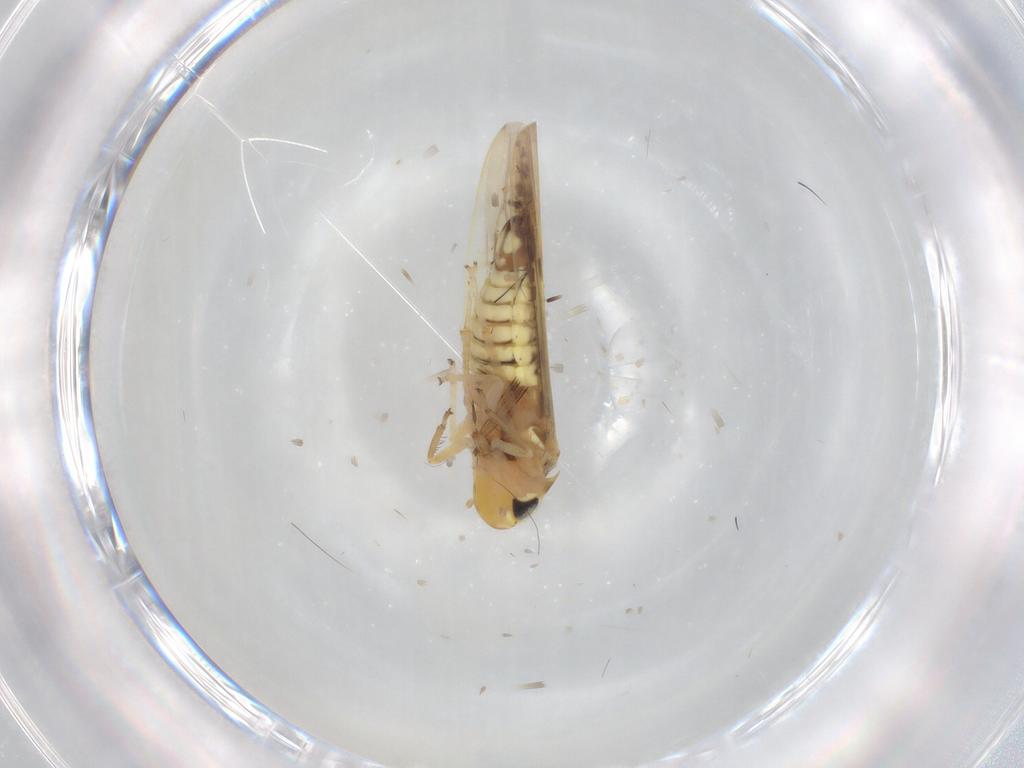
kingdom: Animalia
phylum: Arthropoda
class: Insecta
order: Hemiptera
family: Cicadellidae
